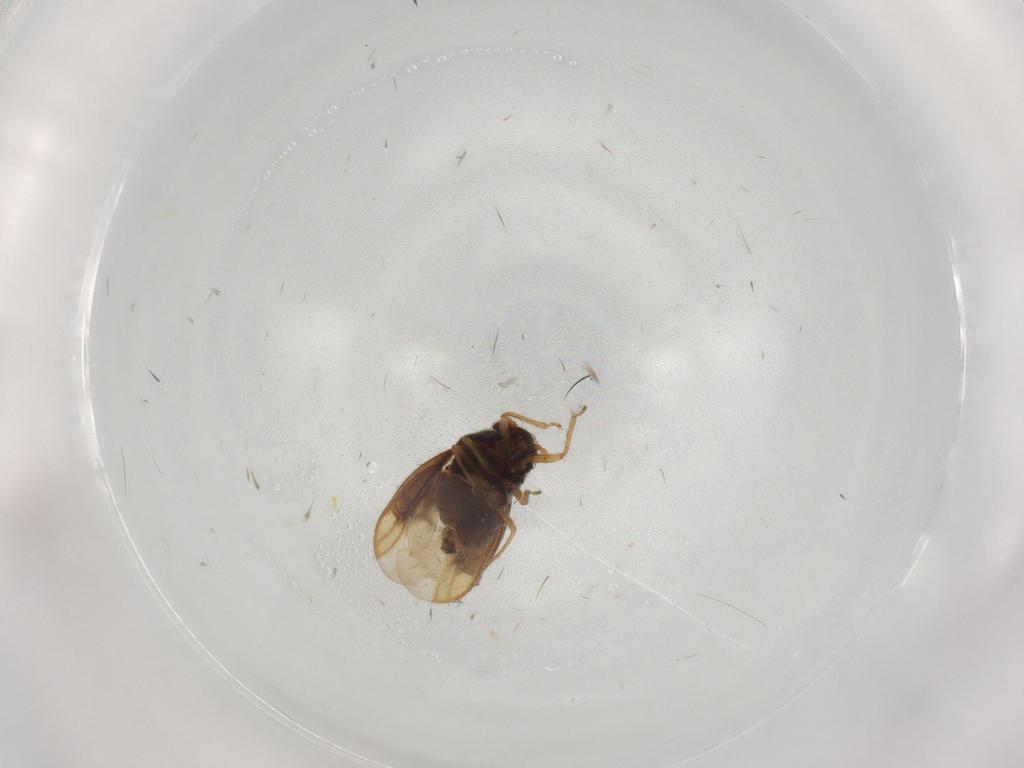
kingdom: Animalia
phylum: Arthropoda
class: Insecta
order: Hemiptera
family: Schizopteridae
